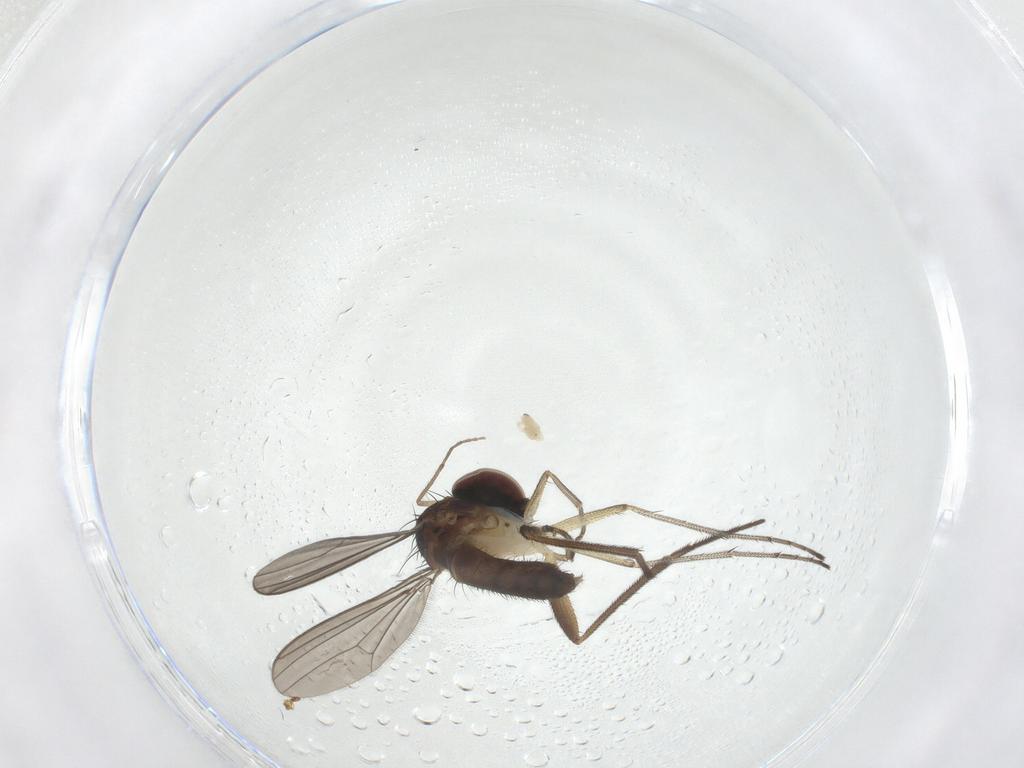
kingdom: Animalia
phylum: Arthropoda
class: Insecta
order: Diptera
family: Dolichopodidae
